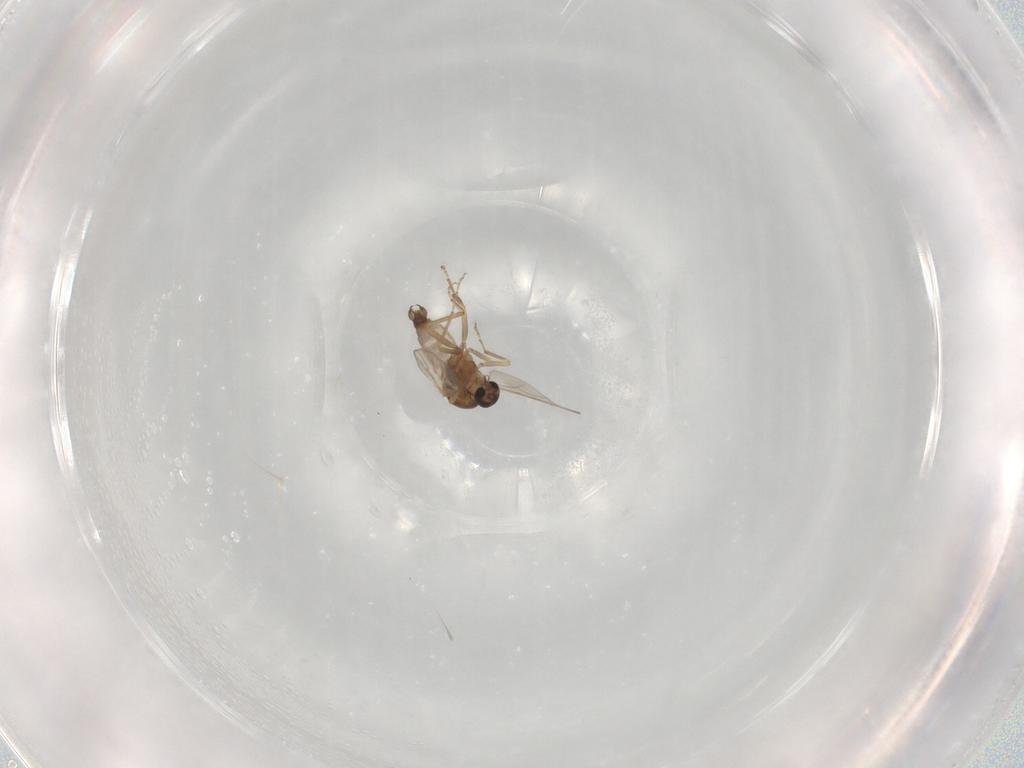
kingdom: Animalia
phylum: Arthropoda
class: Insecta
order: Diptera
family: Ceratopogonidae
